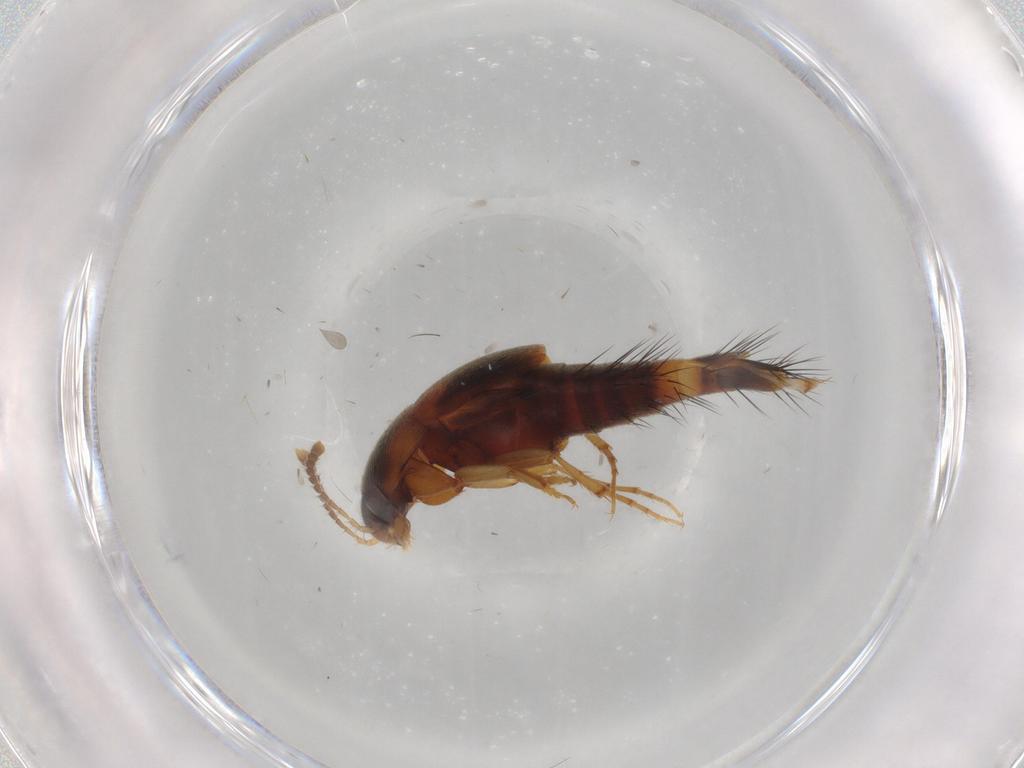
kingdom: Animalia
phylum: Arthropoda
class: Insecta
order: Coleoptera
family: Staphylinidae
